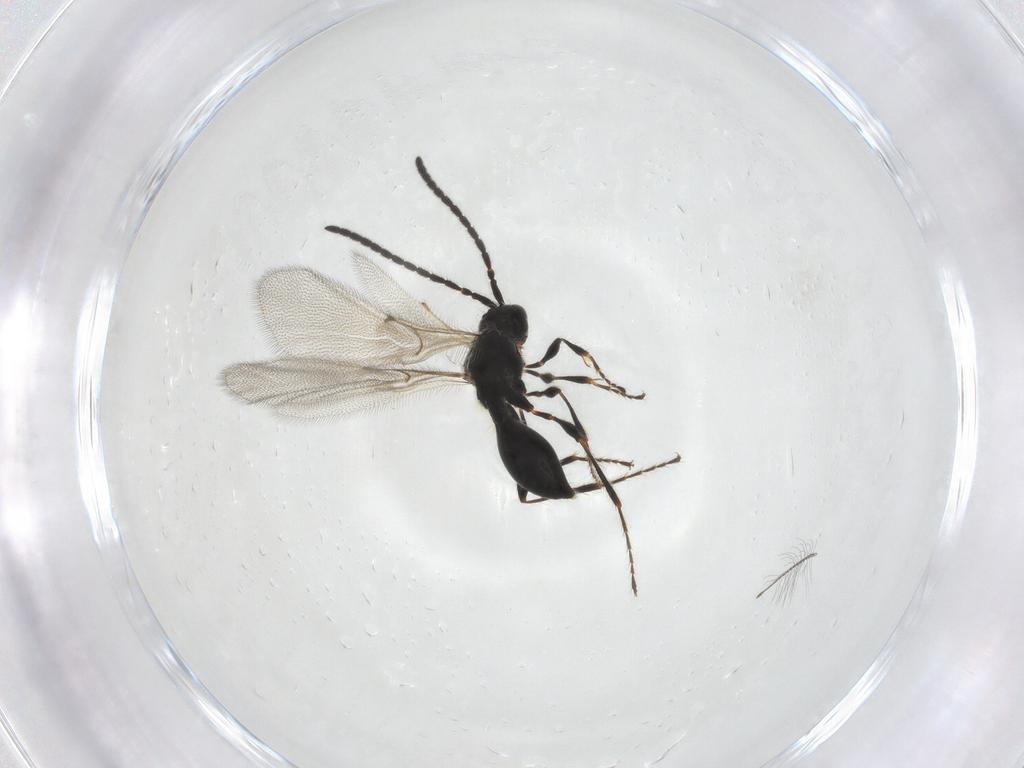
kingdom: Animalia
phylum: Arthropoda
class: Insecta
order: Hymenoptera
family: Diapriidae
